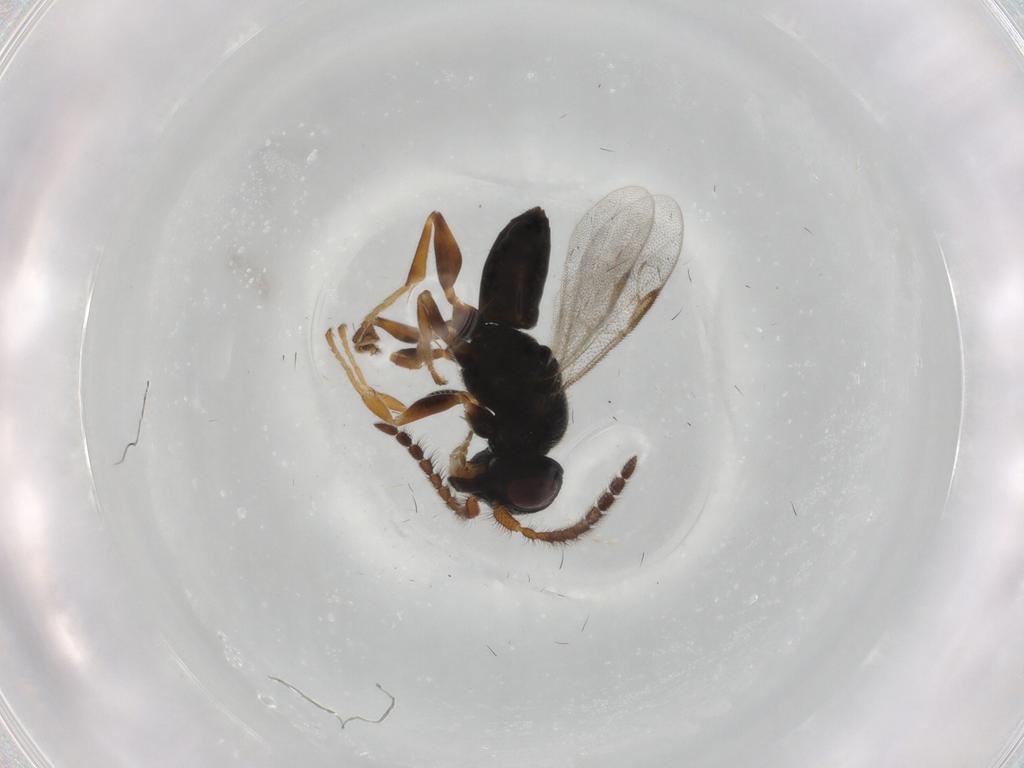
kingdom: Animalia
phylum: Arthropoda
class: Insecta
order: Hymenoptera
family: Dryinidae
